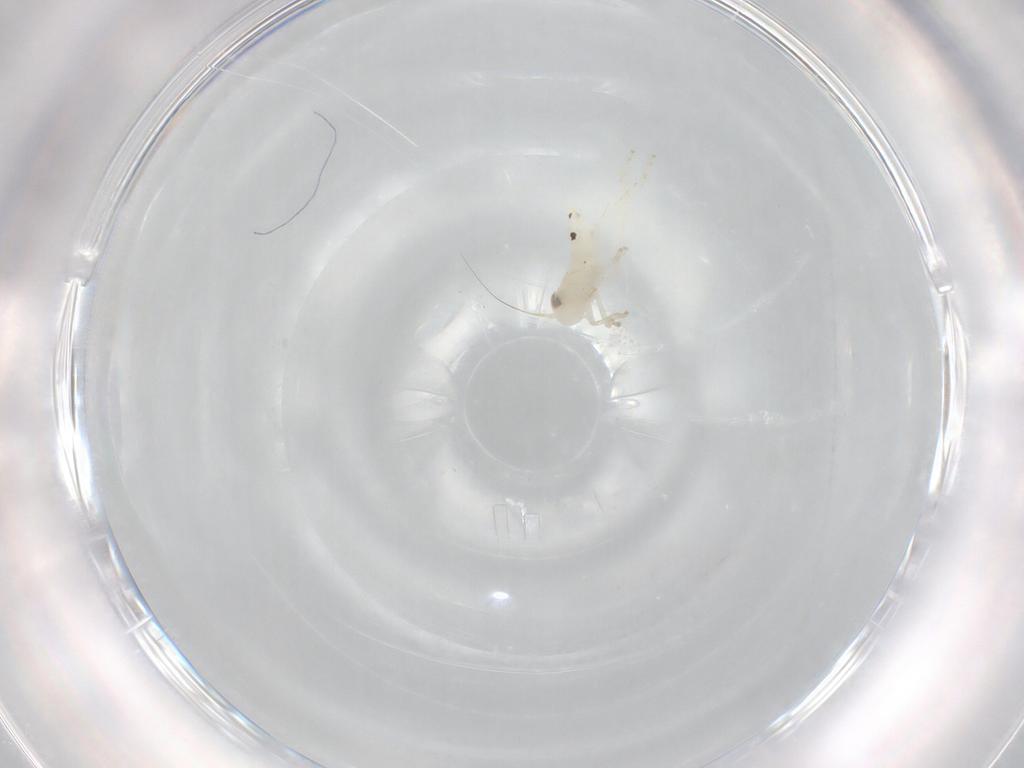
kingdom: Animalia
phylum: Arthropoda
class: Insecta
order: Hemiptera
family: Cicadellidae
